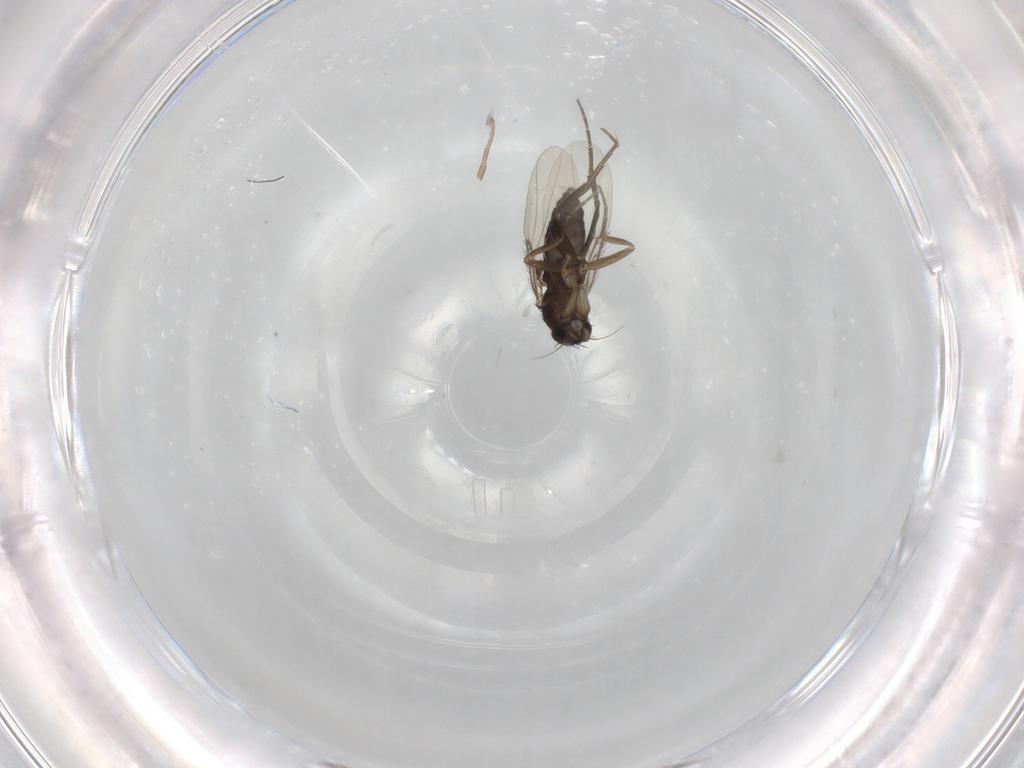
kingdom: Animalia
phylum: Arthropoda
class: Insecta
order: Diptera
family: Phoridae
